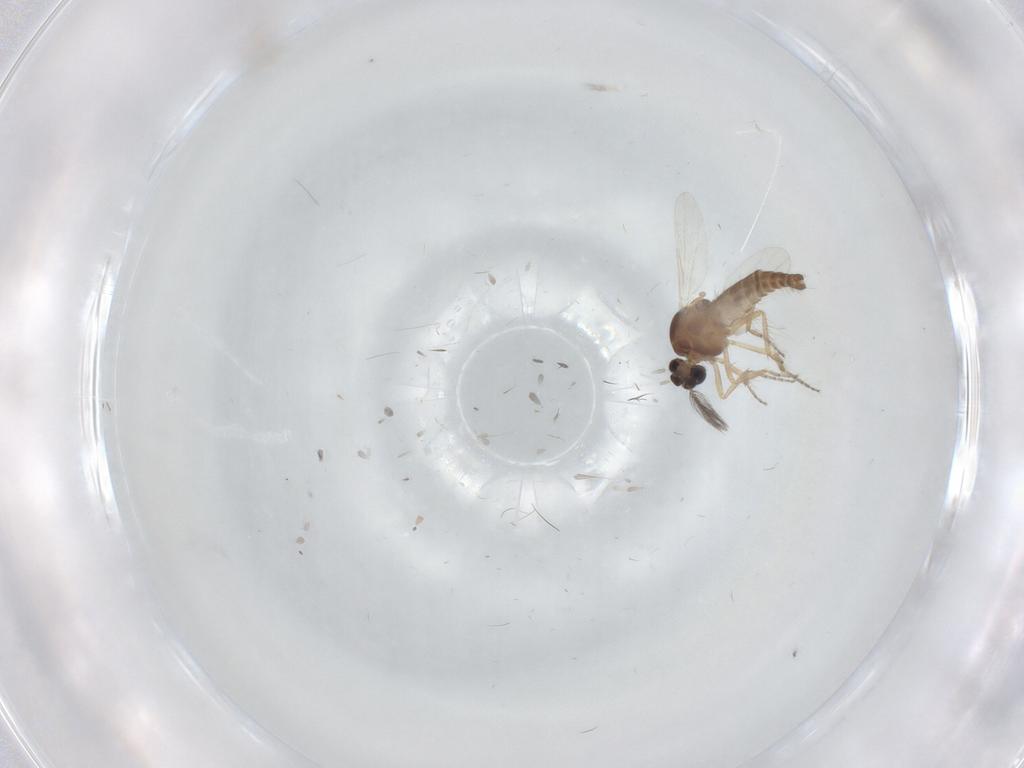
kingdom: Animalia
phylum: Arthropoda
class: Insecta
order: Diptera
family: Ceratopogonidae
